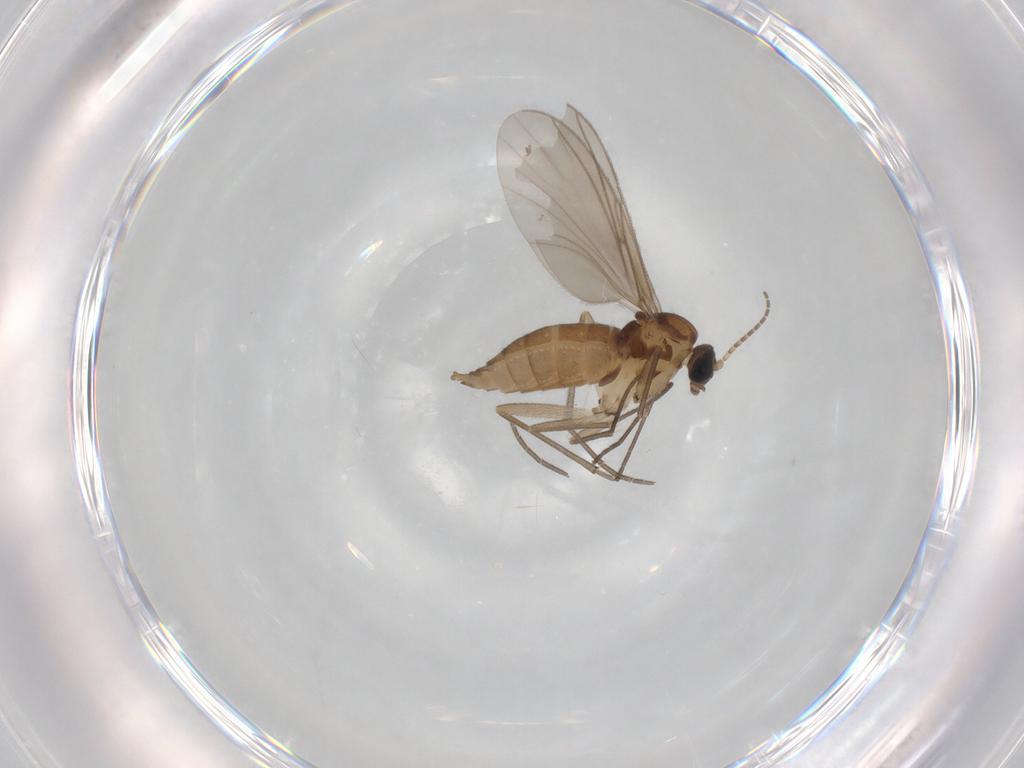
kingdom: Animalia
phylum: Arthropoda
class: Insecta
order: Diptera
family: Sciaridae
